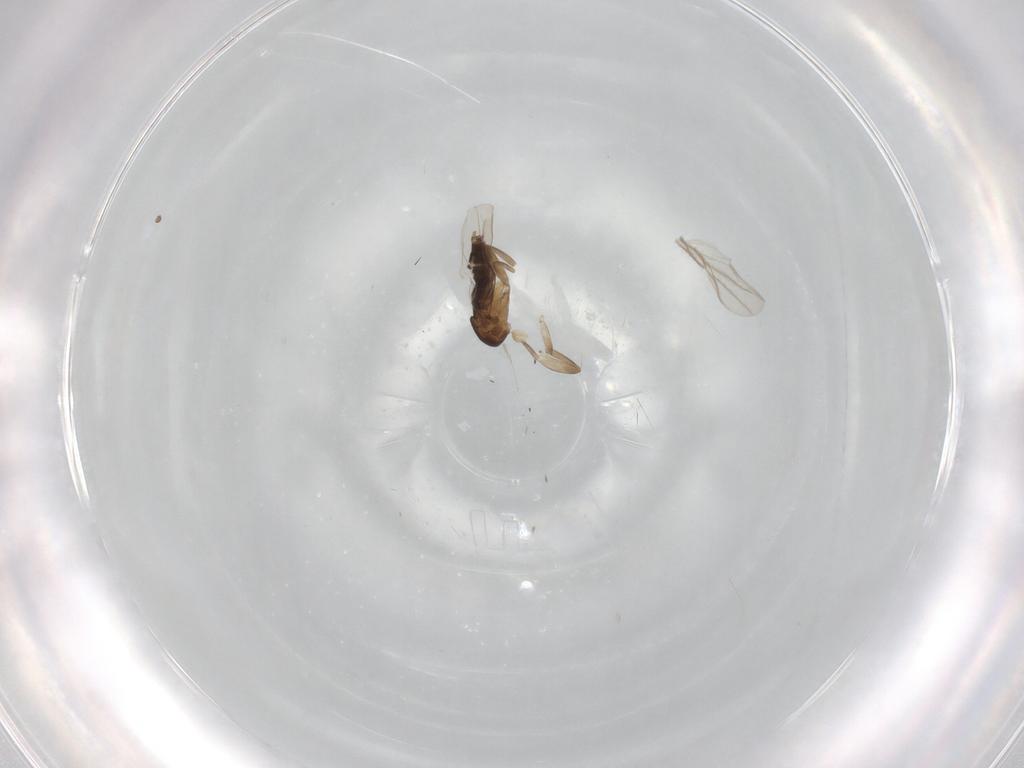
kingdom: Animalia
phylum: Arthropoda
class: Insecta
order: Diptera
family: Phoridae
